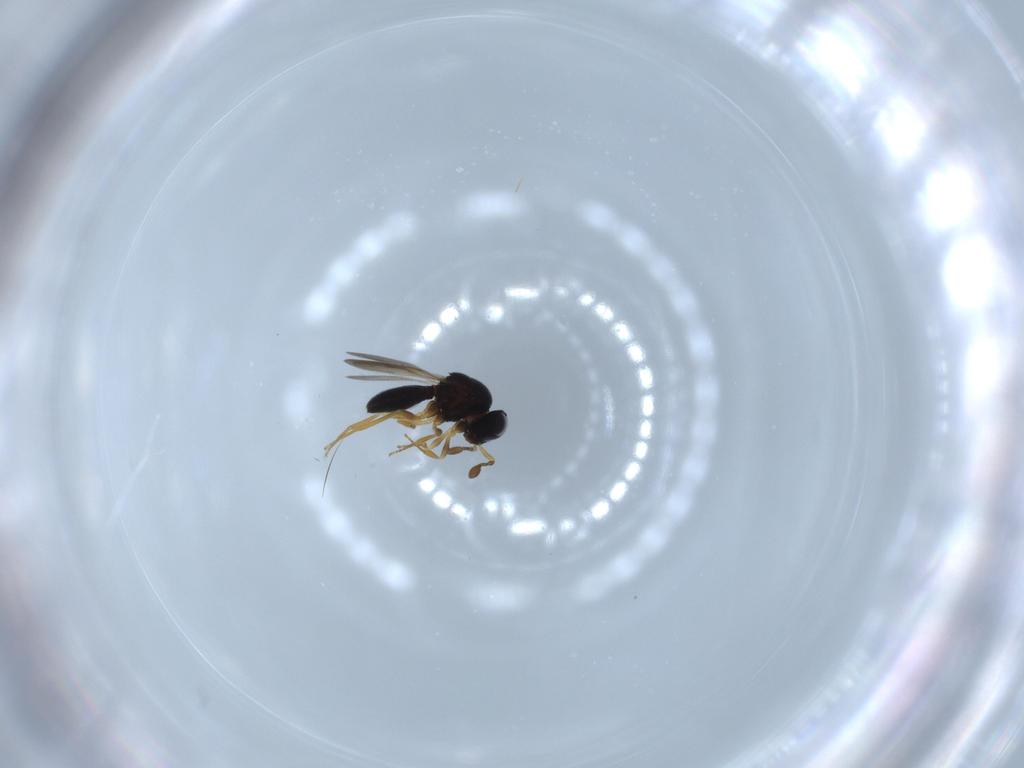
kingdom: Animalia
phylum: Arthropoda
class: Insecta
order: Hymenoptera
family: Scelionidae
